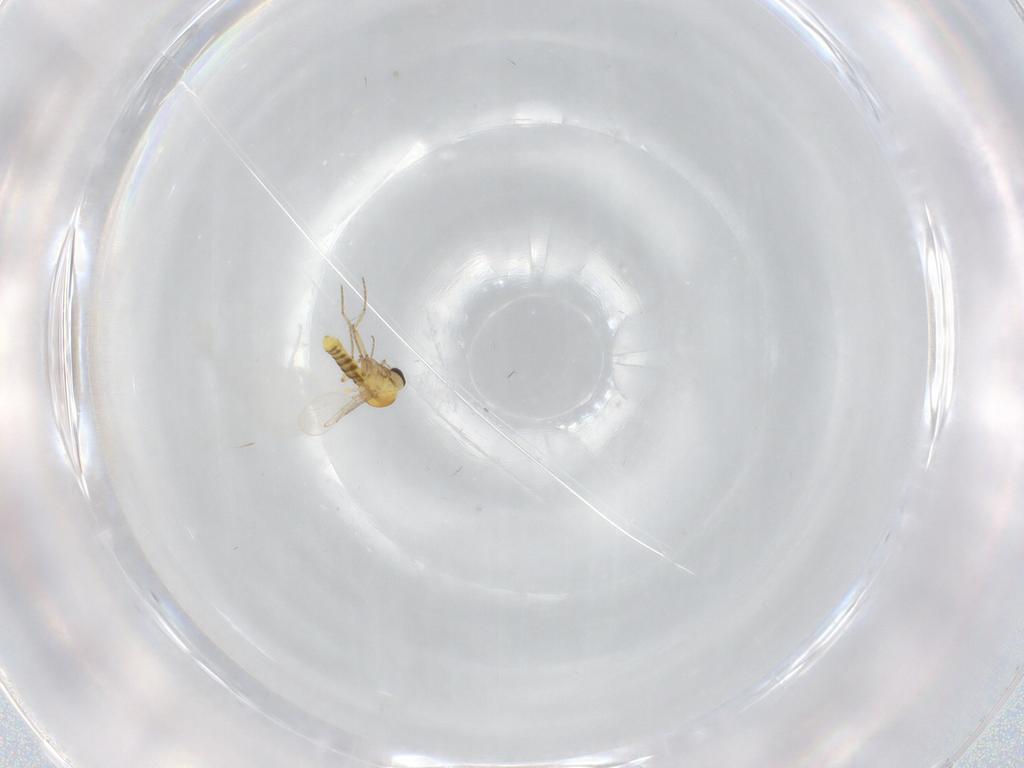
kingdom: Animalia
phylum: Arthropoda
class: Insecta
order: Diptera
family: Ceratopogonidae
